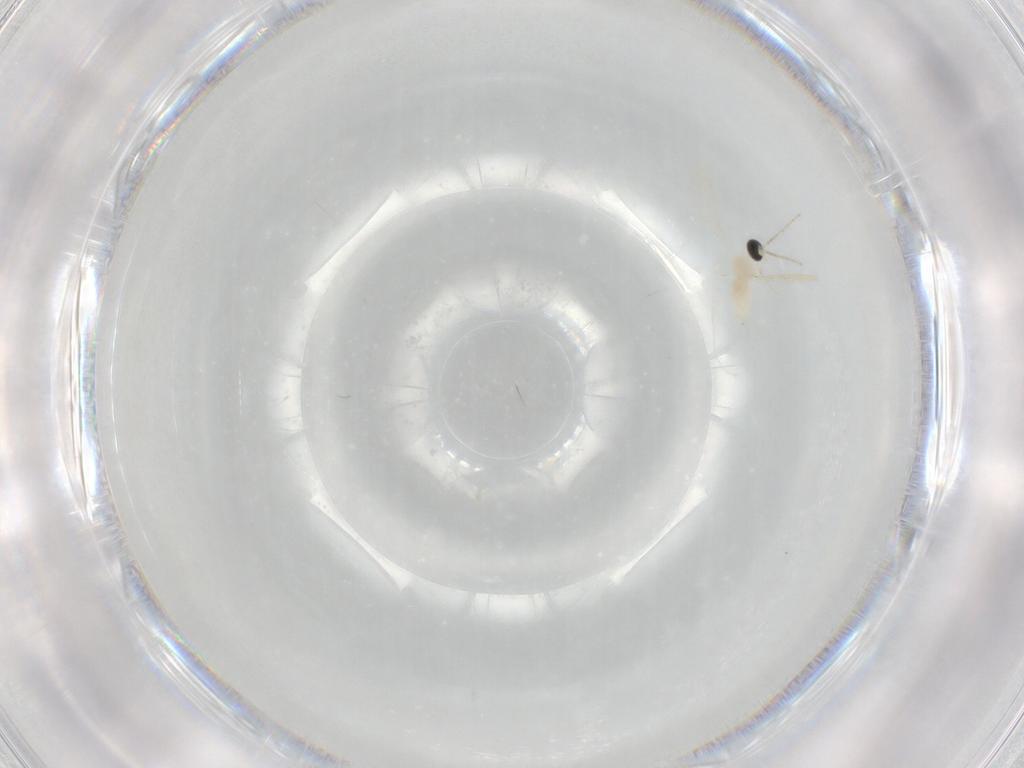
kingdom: Animalia
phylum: Arthropoda
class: Insecta
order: Diptera
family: Cecidomyiidae
